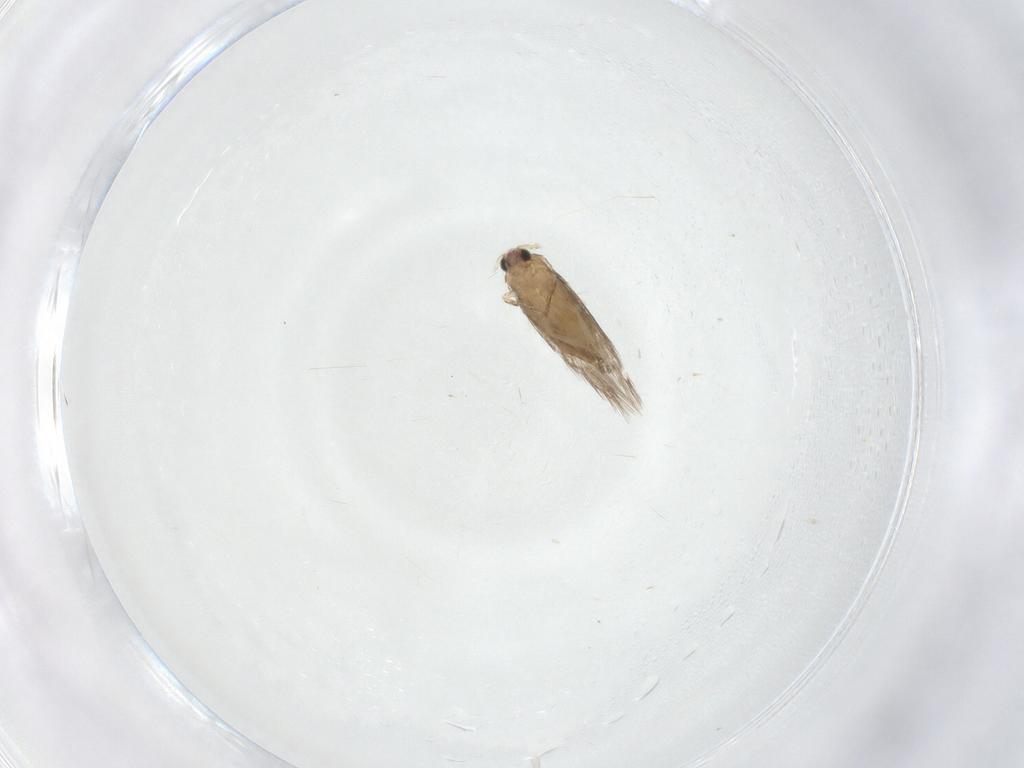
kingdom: Animalia
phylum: Arthropoda
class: Insecta
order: Lepidoptera
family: Nepticulidae
